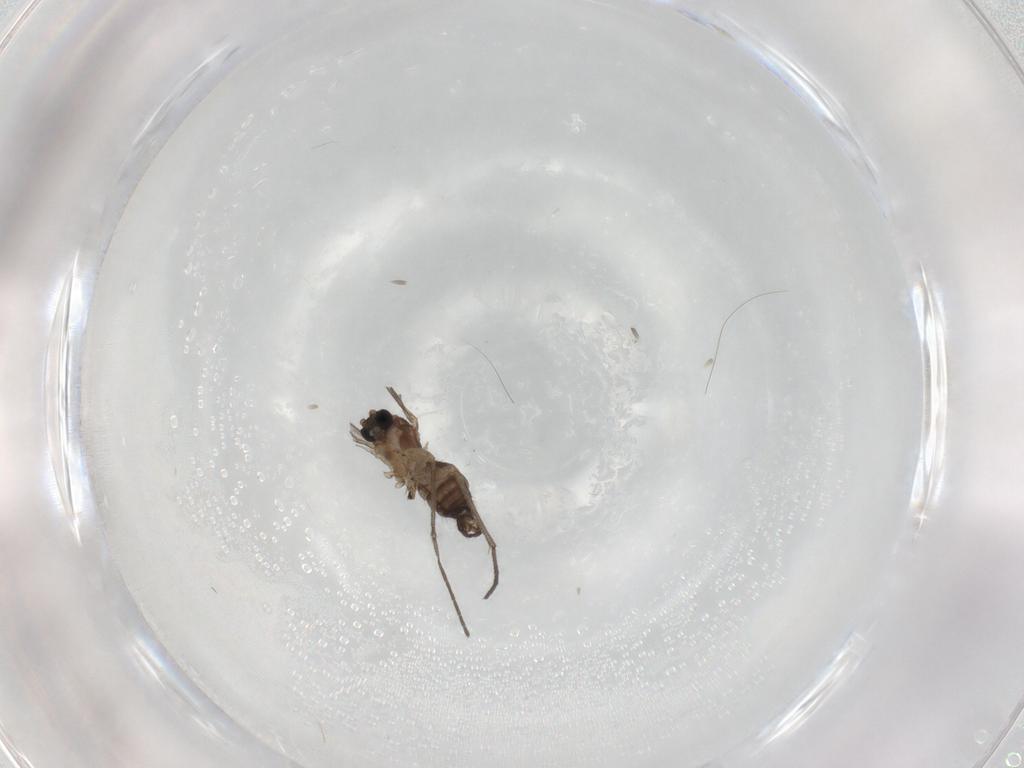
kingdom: Animalia
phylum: Arthropoda
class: Insecta
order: Diptera
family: Sciaridae
